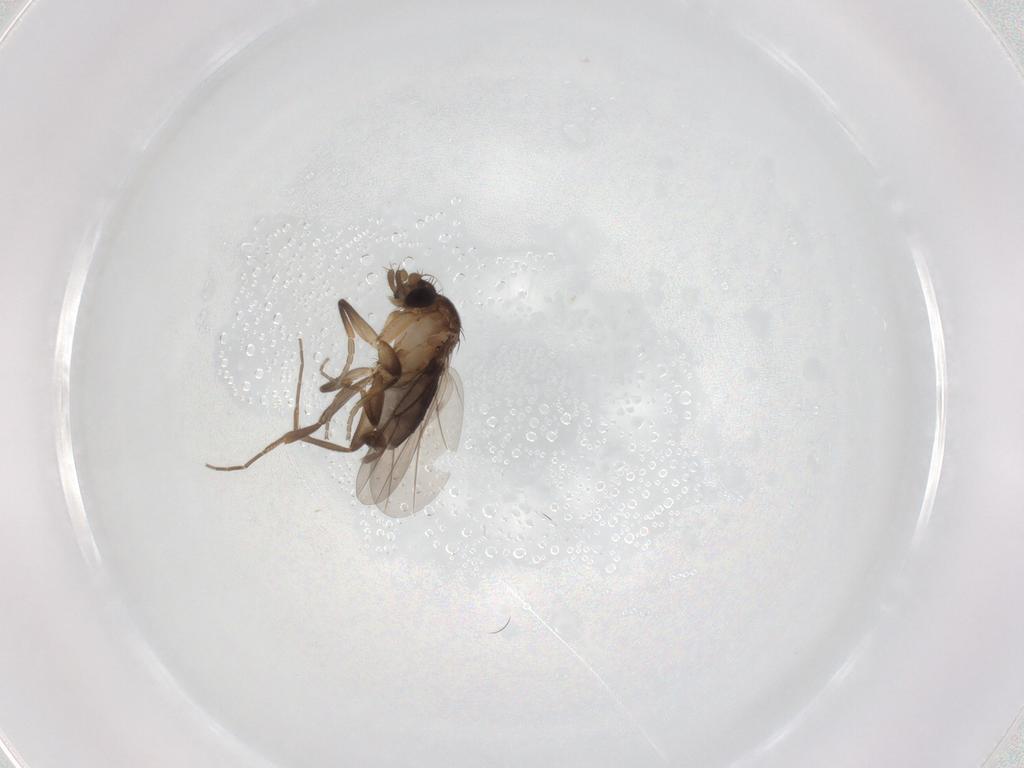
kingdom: Animalia
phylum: Arthropoda
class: Insecta
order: Diptera
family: Phoridae
